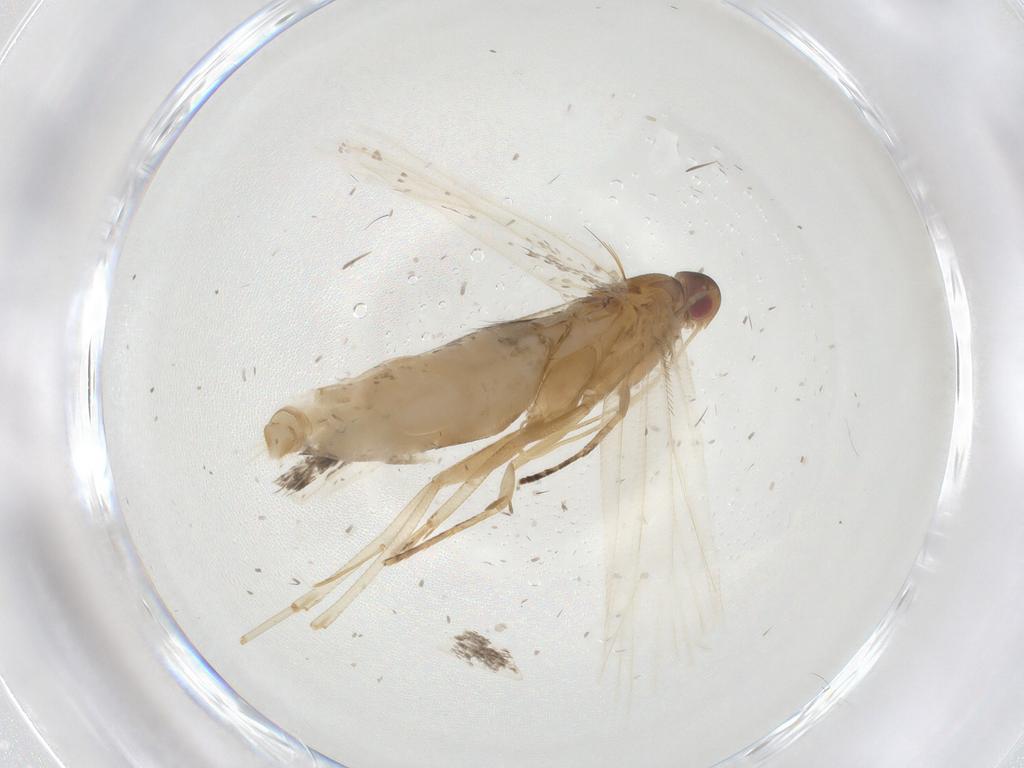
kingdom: Animalia
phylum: Arthropoda
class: Insecta
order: Lepidoptera
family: Gelechiidae
